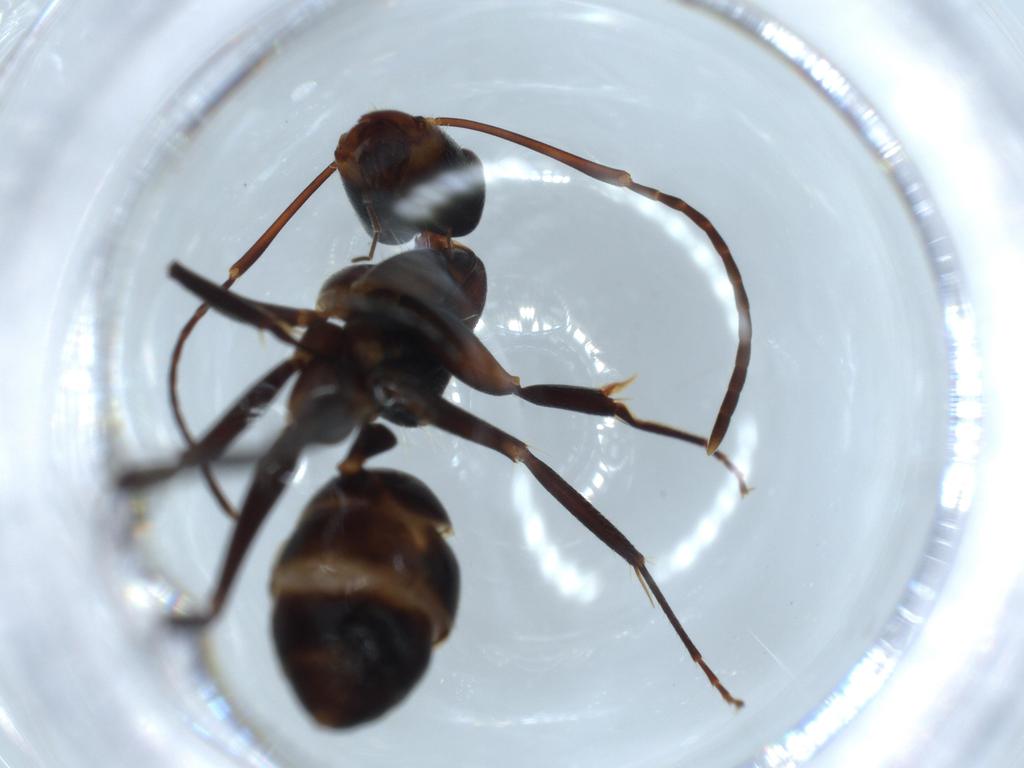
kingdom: Animalia
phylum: Arthropoda
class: Insecta
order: Hymenoptera
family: Formicidae
